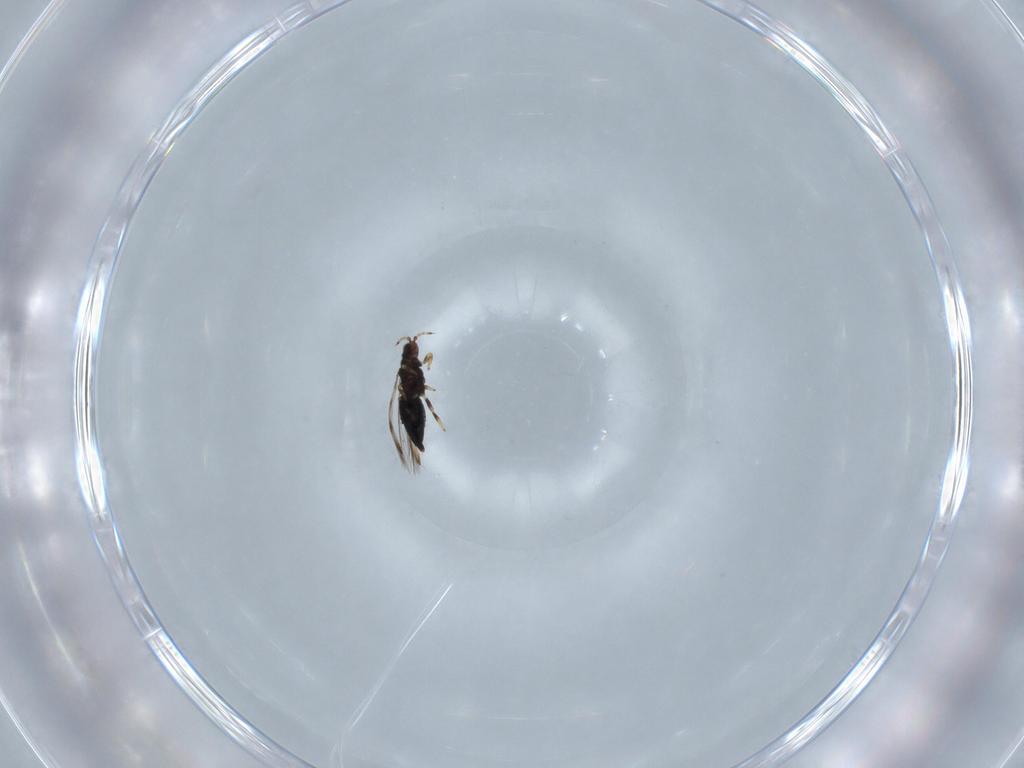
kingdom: Animalia
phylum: Arthropoda
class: Insecta
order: Thysanoptera
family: Thripidae
